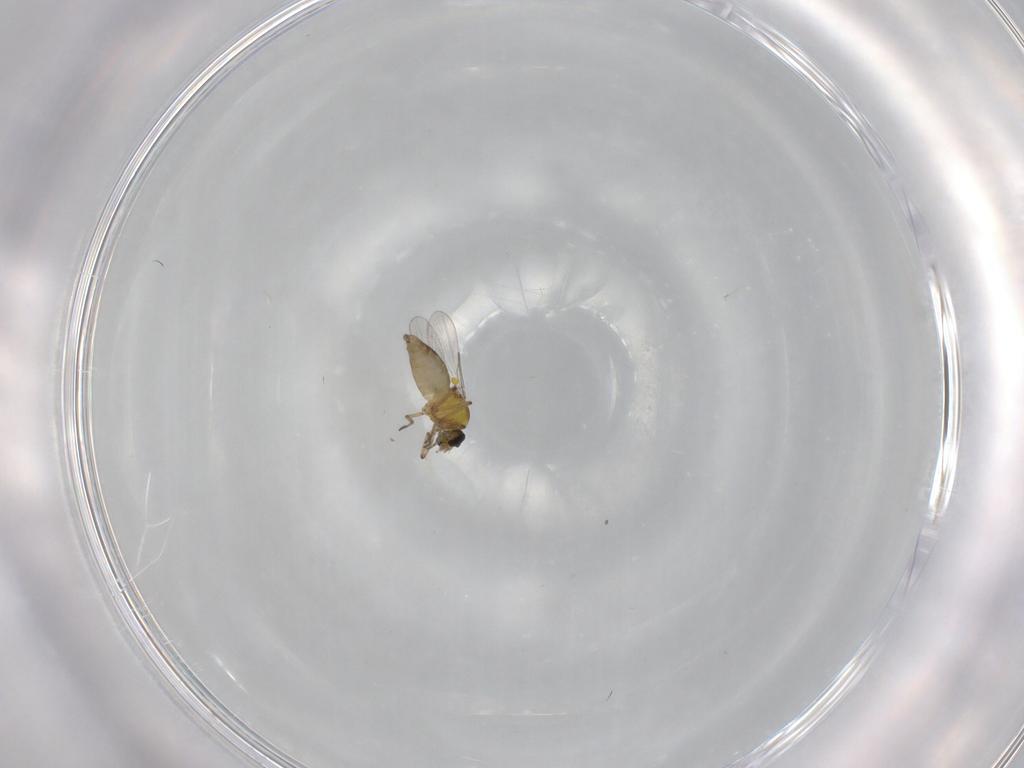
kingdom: Animalia
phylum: Arthropoda
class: Insecta
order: Diptera
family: Ceratopogonidae
